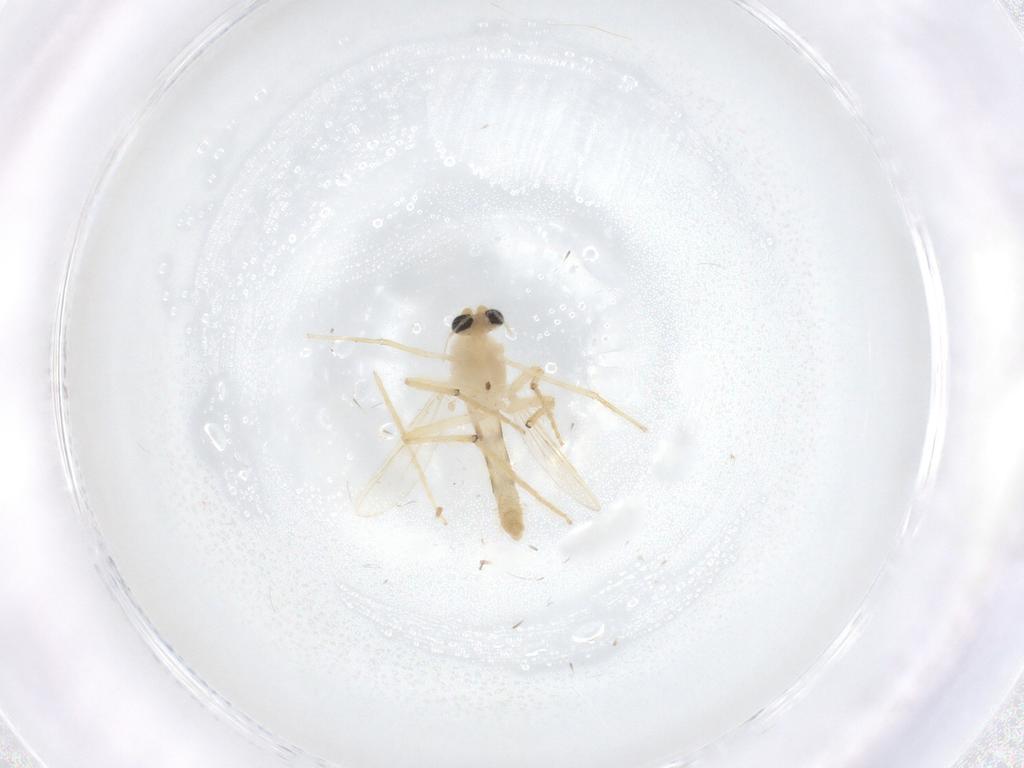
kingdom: Animalia
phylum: Arthropoda
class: Insecta
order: Diptera
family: Chironomidae
